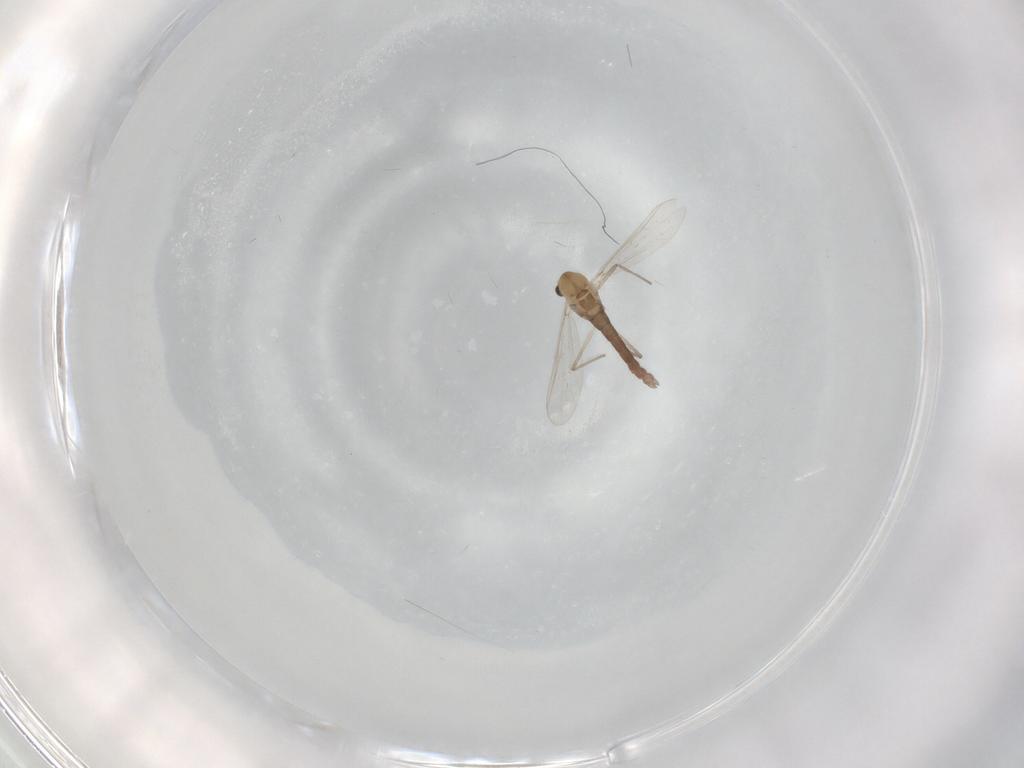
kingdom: Animalia
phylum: Arthropoda
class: Insecta
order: Diptera
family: Chironomidae
